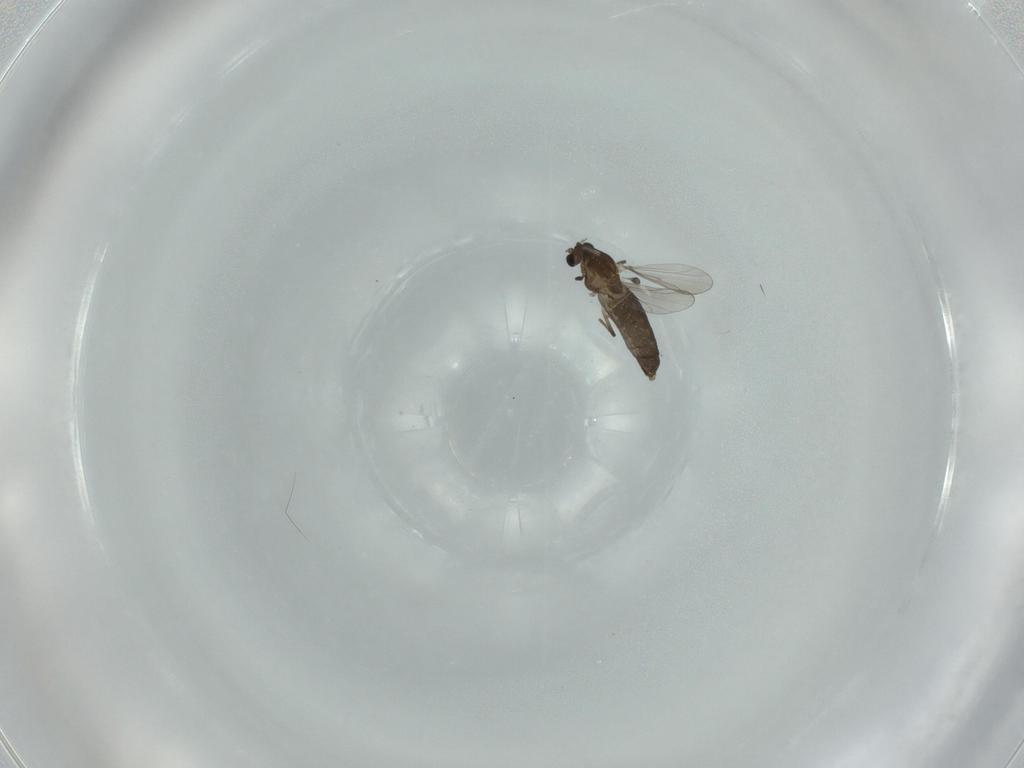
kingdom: Animalia
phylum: Arthropoda
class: Insecta
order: Diptera
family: Chironomidae
